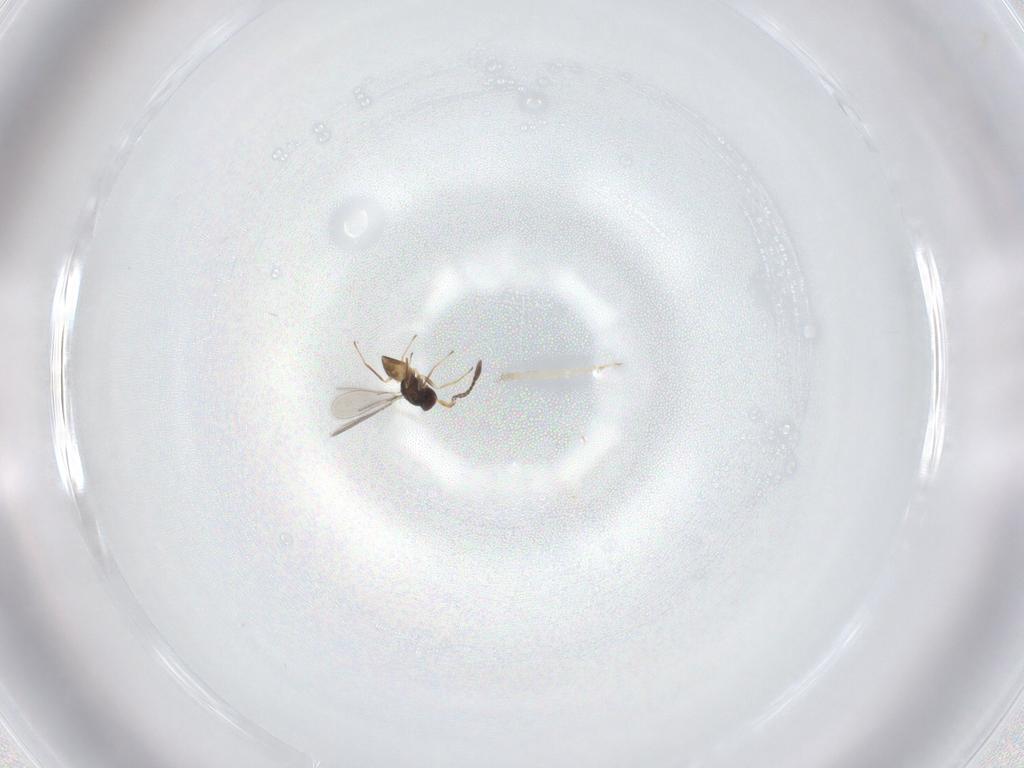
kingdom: Animalia
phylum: Arthropoda
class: Insecta
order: Hymenoptera
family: Mymaridae
